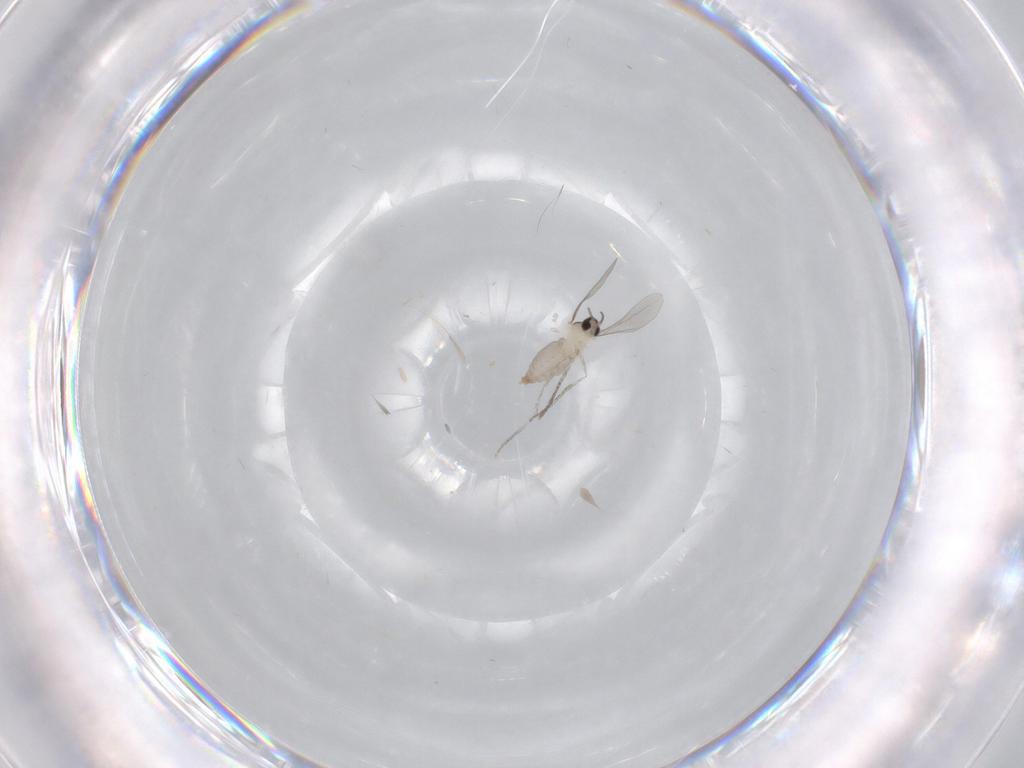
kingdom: Animalia
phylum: Arthropoda
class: Insecta
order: Diptera
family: Cecidomyiidae
